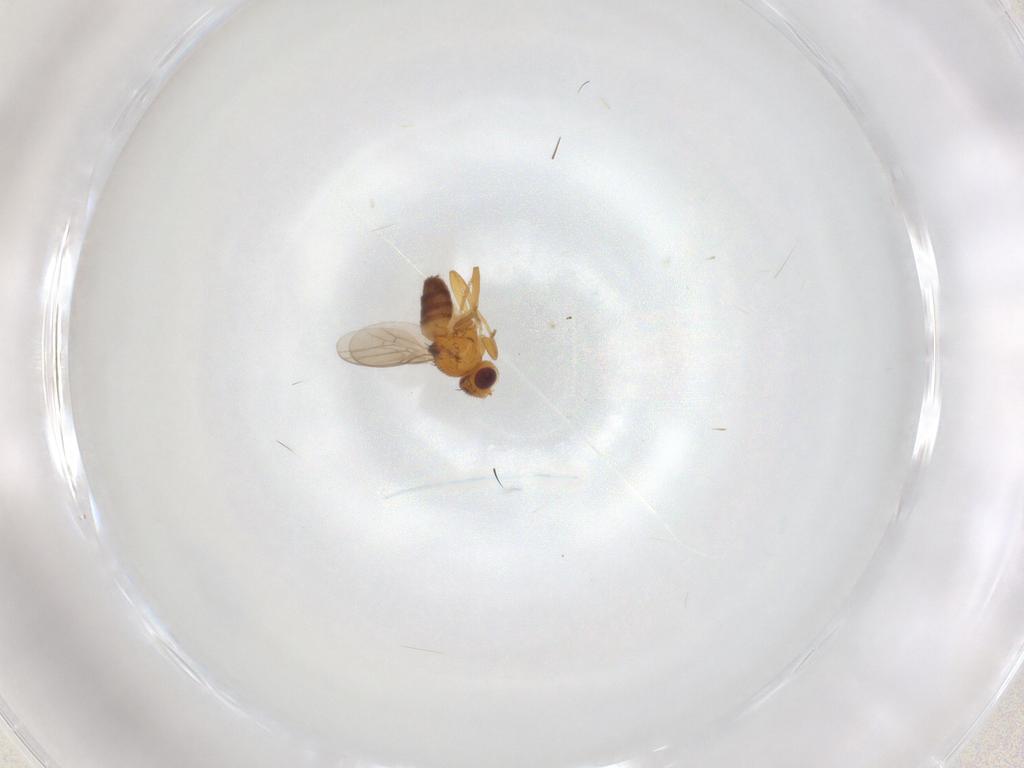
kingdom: Animalia
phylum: Arthropoda
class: Insecta
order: Diptera
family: Chloropidae
